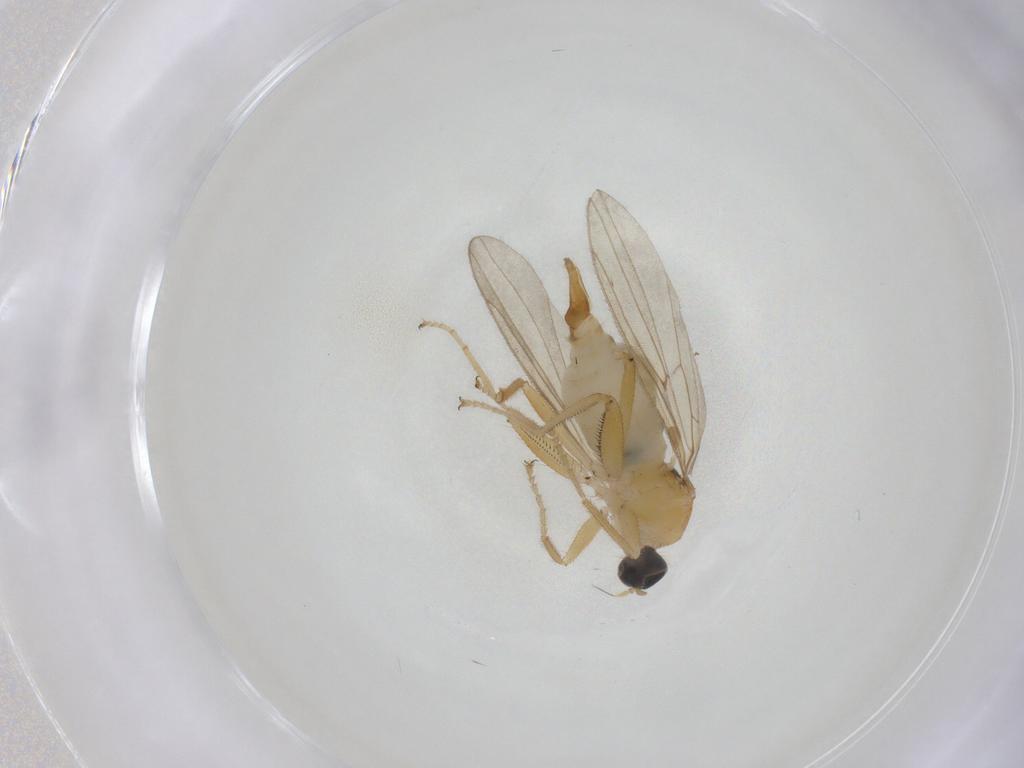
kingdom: Animalia
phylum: Arthropoda
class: Insecta
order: Diptera
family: Hybotidae
